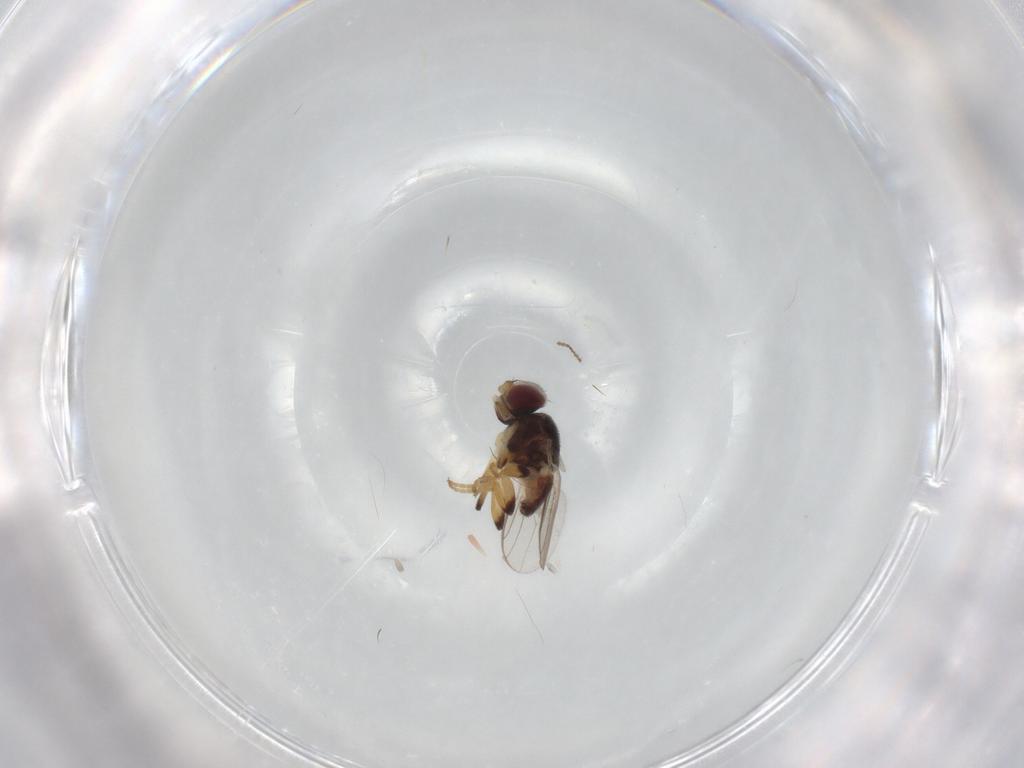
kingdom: Animalia
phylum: Arthropoda
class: Insecta
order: Diptera
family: Chloropidae
